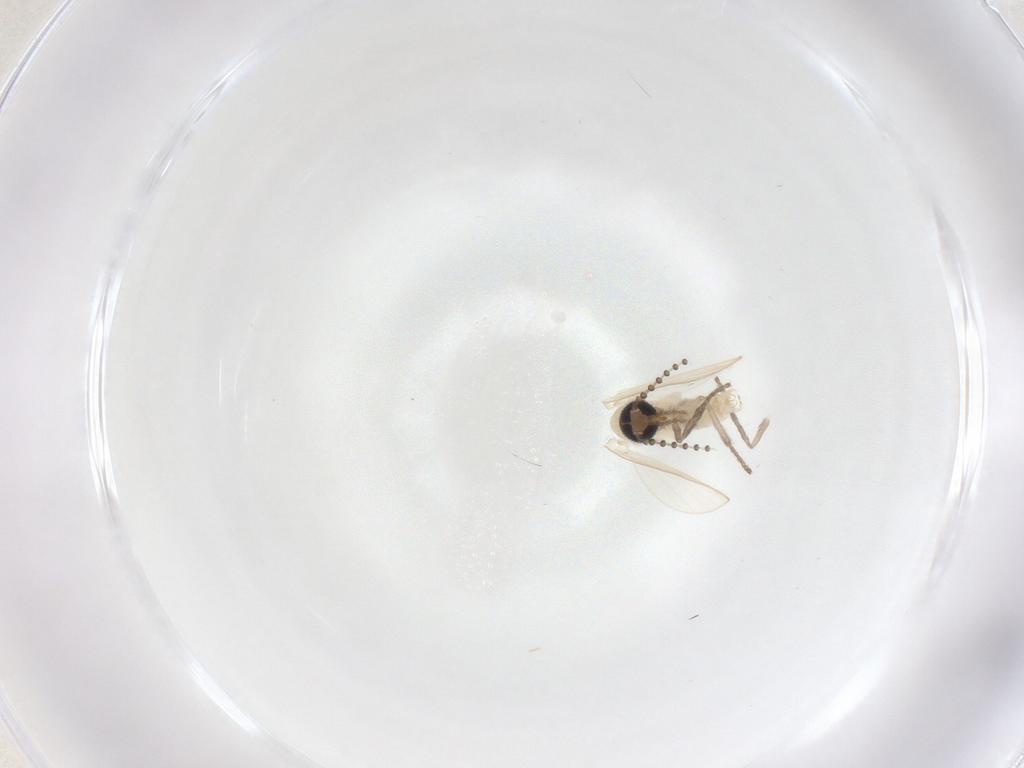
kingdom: Animalia
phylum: Arthropoda
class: Insecta
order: Diptera
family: Psychodidae
